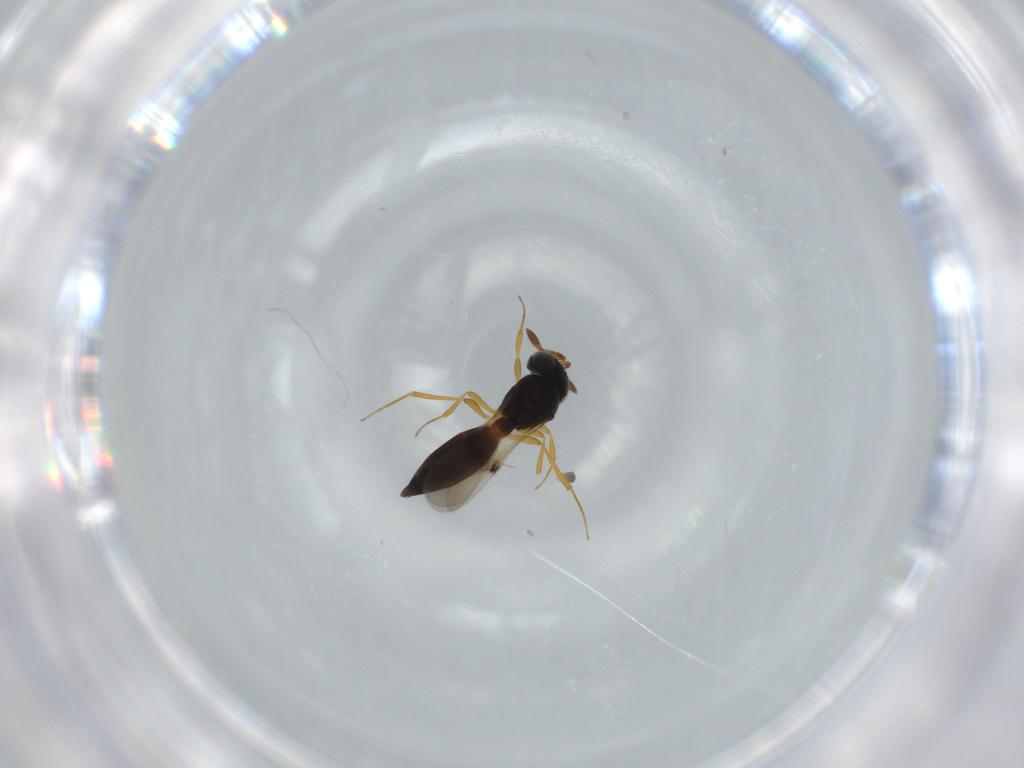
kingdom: Animalia
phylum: Arthropoda
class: Insecta
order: Hymenoptera
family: Scelionidae
